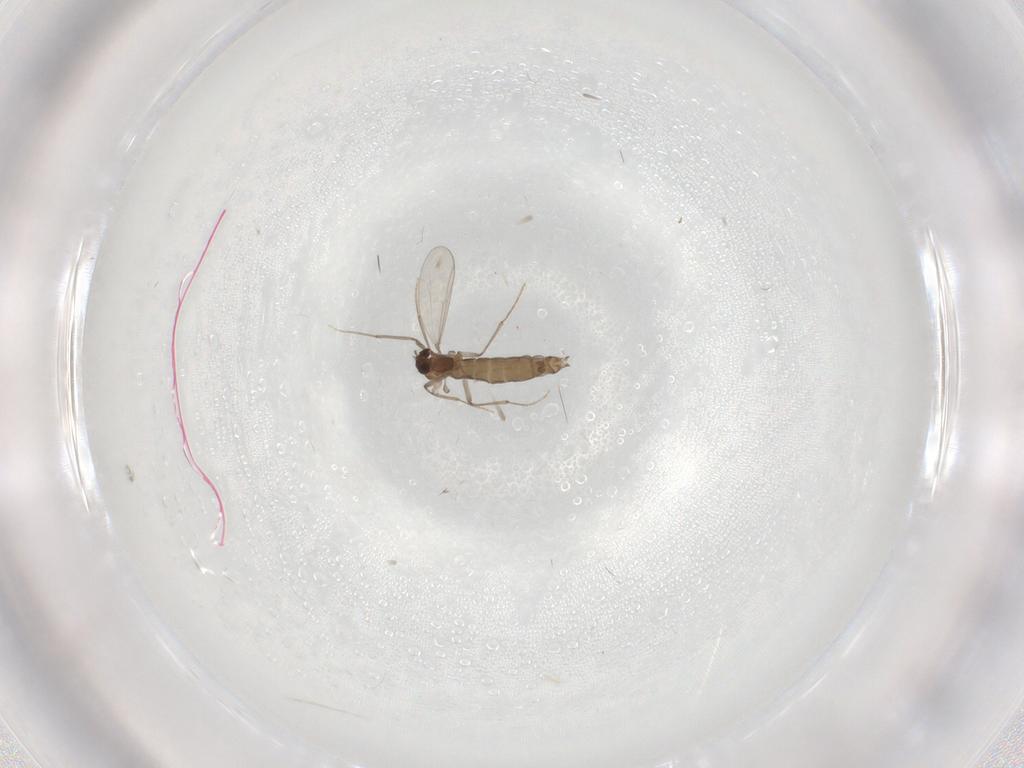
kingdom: Animalia
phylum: Arthropoda
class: Insecta
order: Diptera
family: Chironomidae
